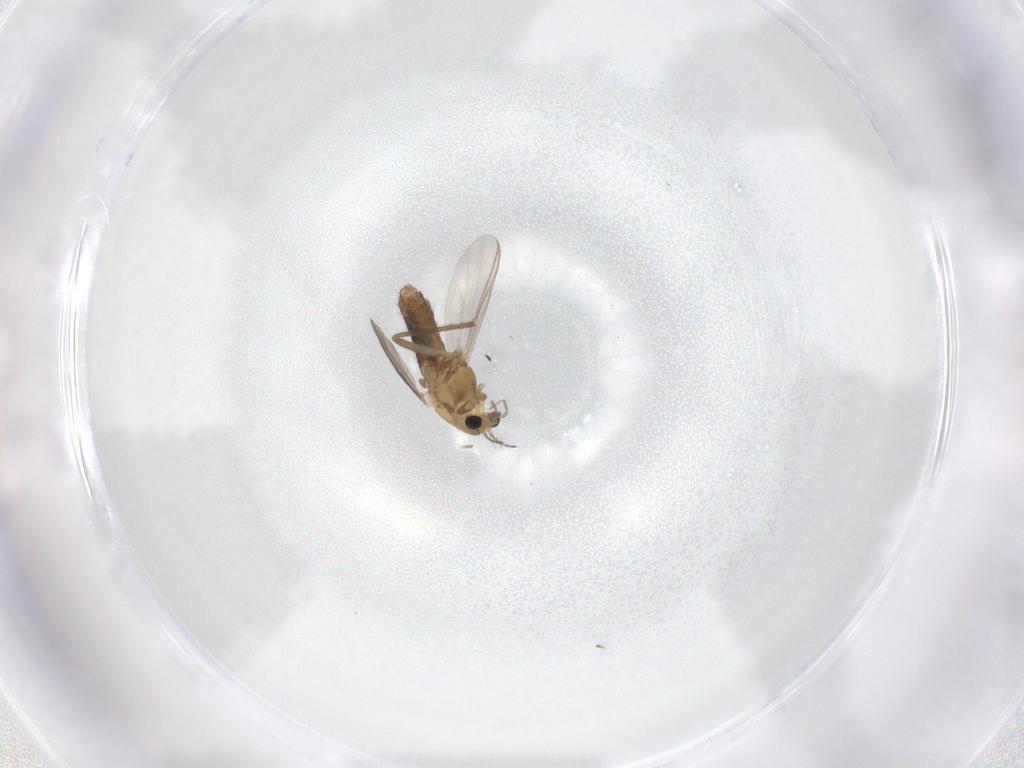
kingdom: Animalia
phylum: Arthropoda
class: Insecta
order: Diptera
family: Chironomidae
